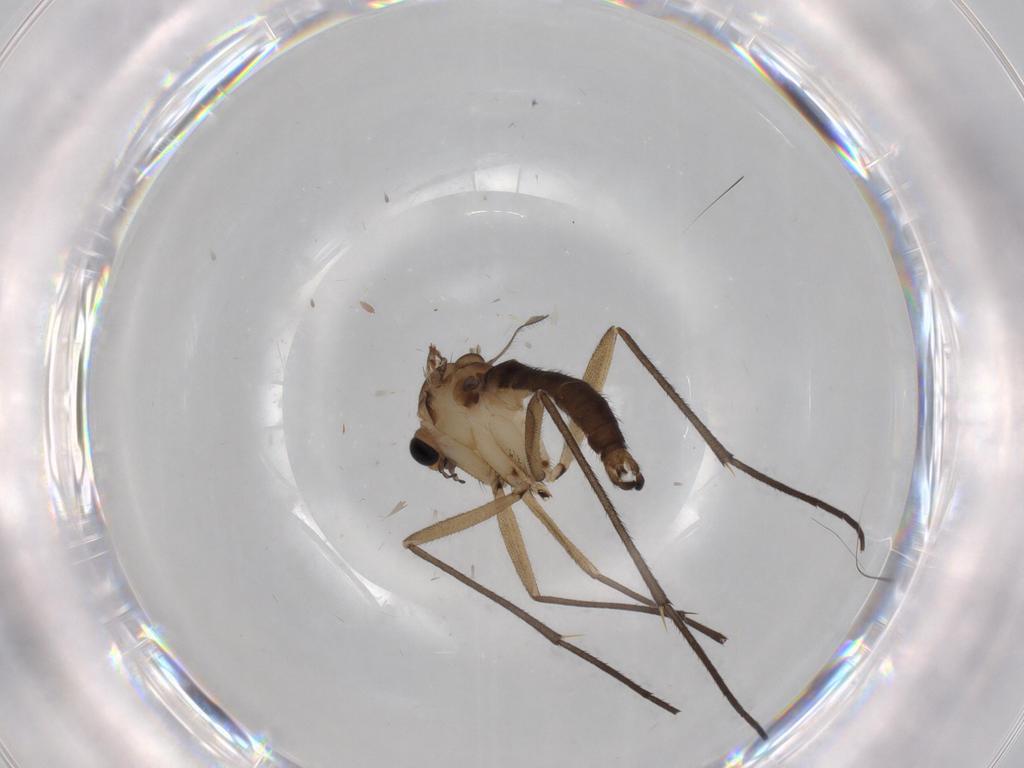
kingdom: Animalia
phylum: Arthropoda
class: Insecta
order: Diptera
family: Sciaridae
